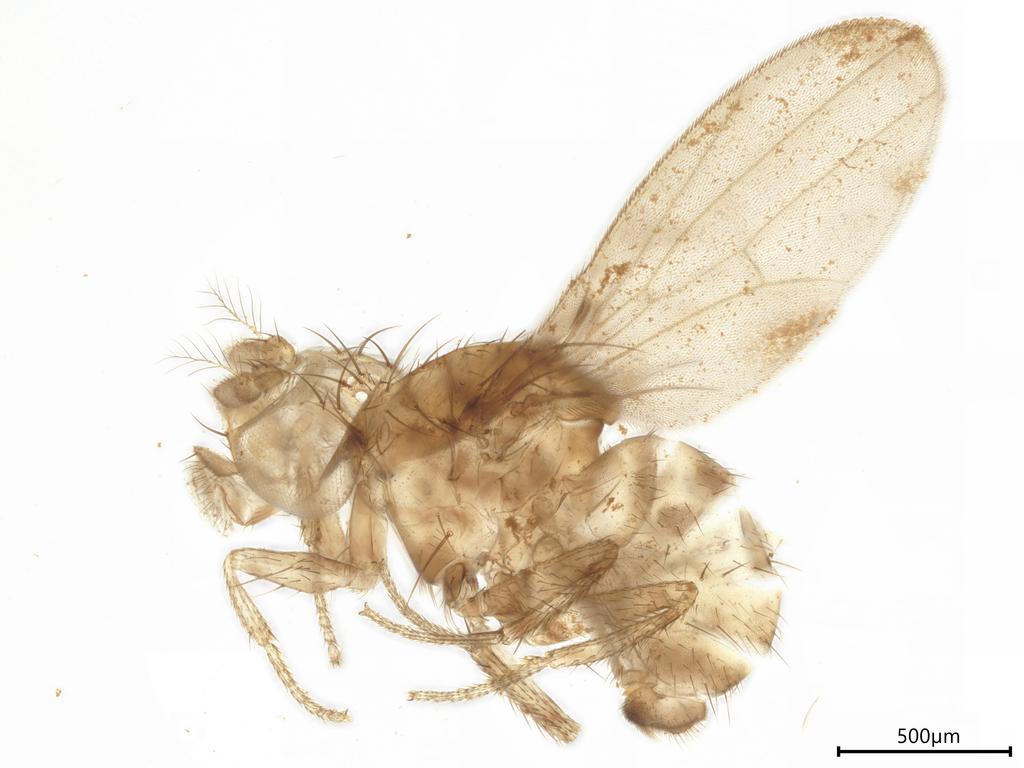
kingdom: Animalia
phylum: Arthropoda
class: Insecta
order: Diptera
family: Drosophilidae
